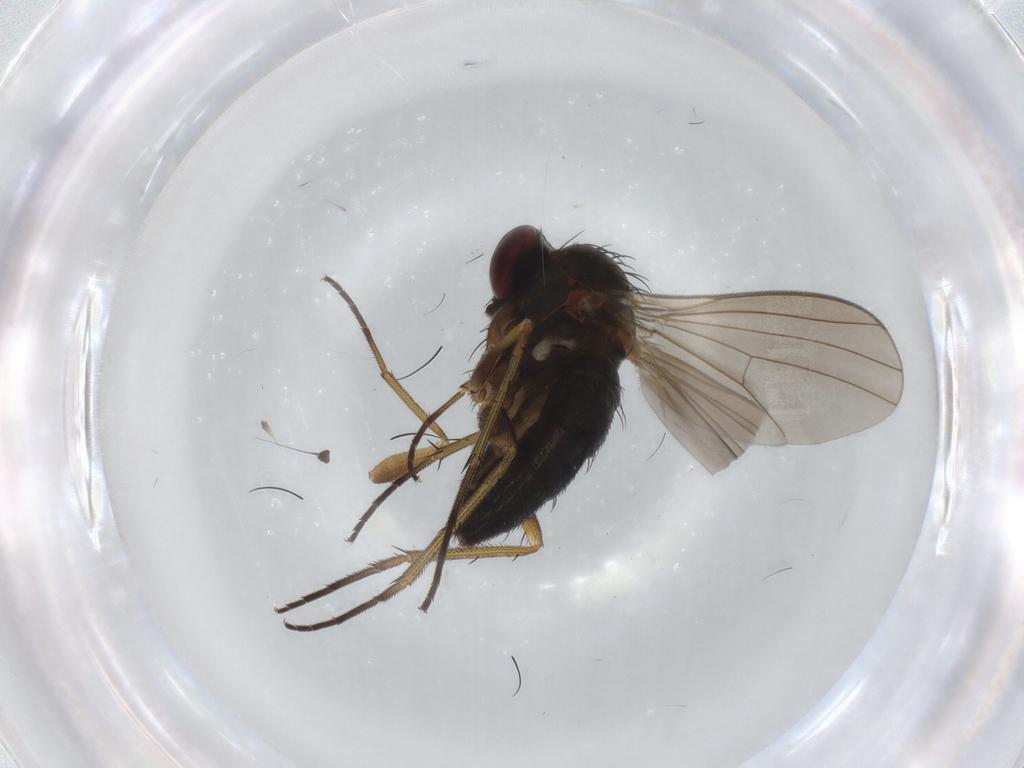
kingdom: Animalia
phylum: Arthropoda
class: Insecta
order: Diptera
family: Dolichopodidae
